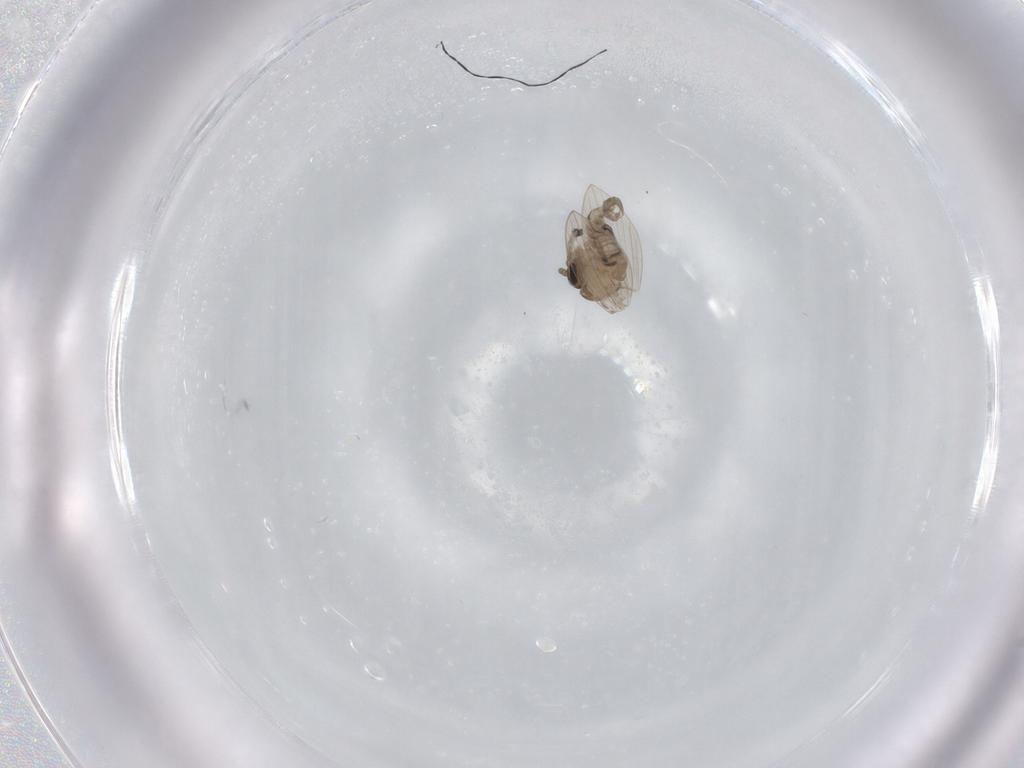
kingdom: Animalia
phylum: Arthropoda
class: Insecta
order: Diptera
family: Psychodidae
